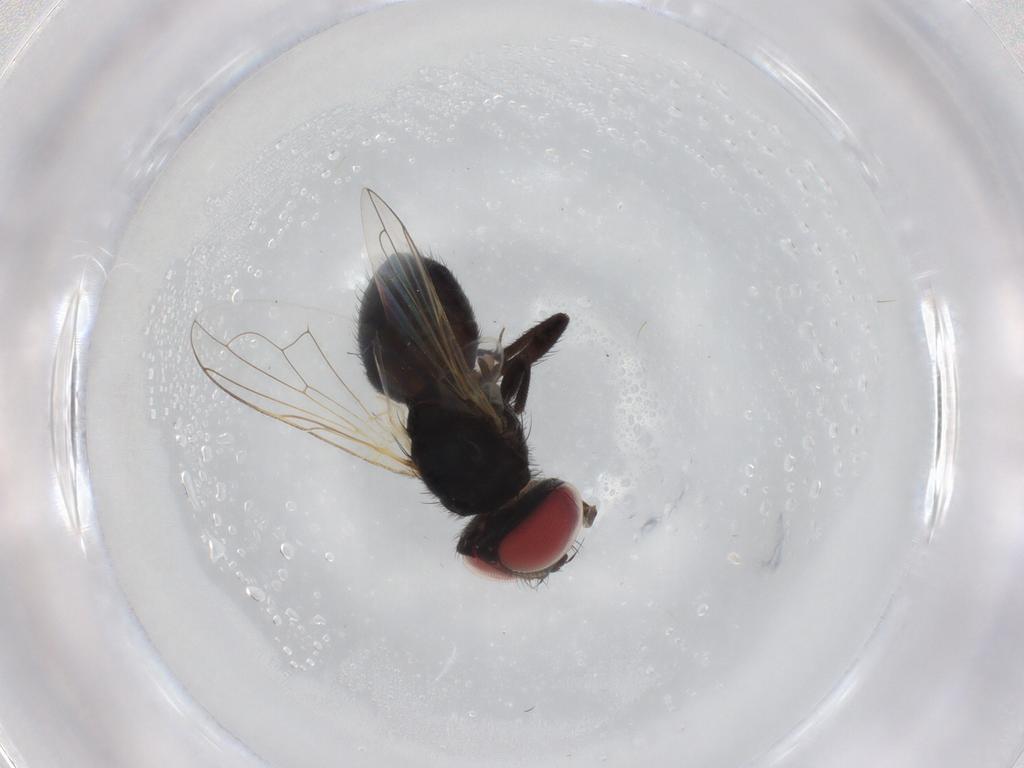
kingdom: Animalia
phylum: Arthropoda
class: Insecta
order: Diptera
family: Tachinidae
